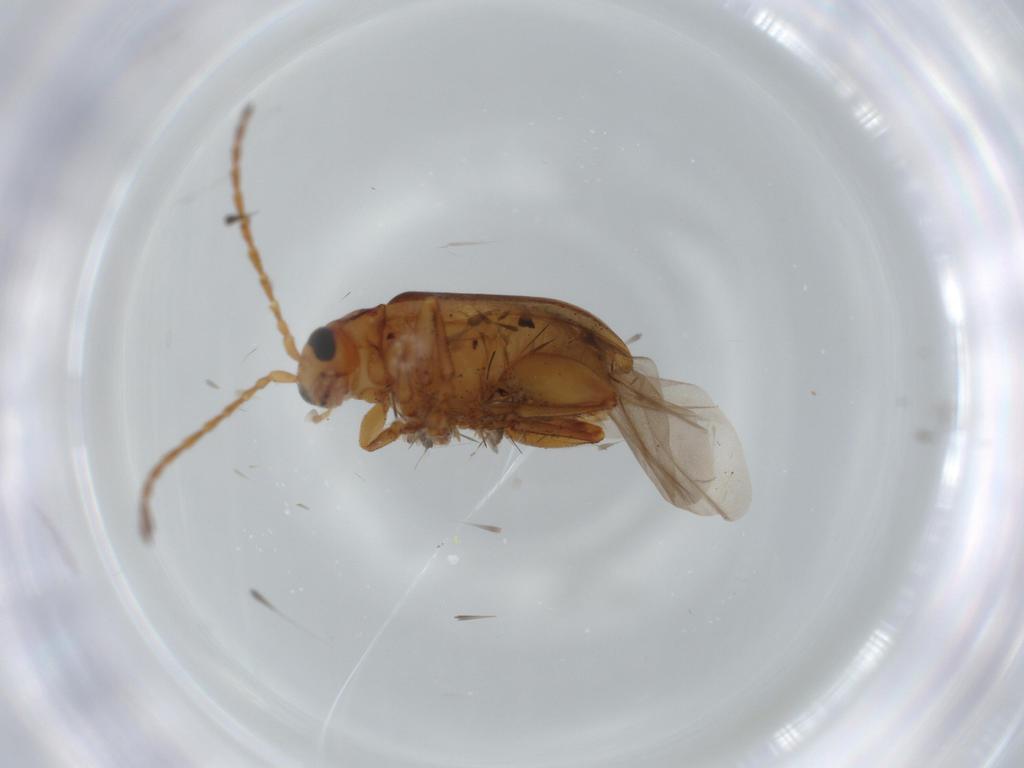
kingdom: Animalia
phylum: Arthropoda
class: Insecta
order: Coleoptera
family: Chrysomelidae
